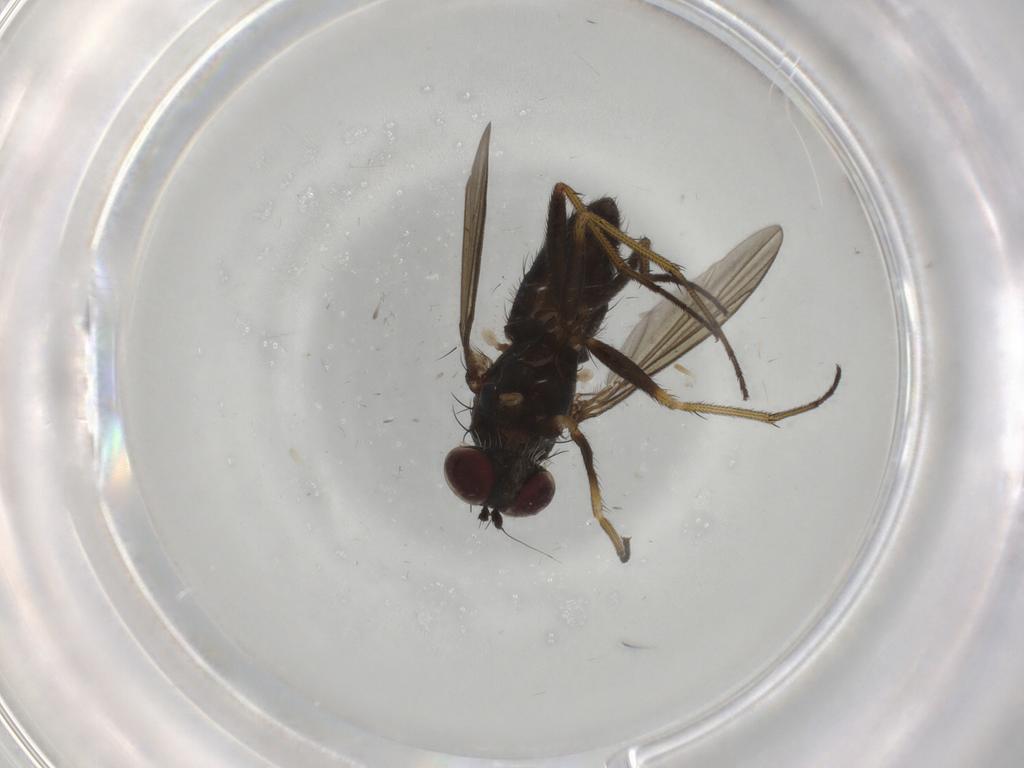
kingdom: Animalia
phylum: Arthropoda
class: Insecta
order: Diptera
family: Dolichopodidae
